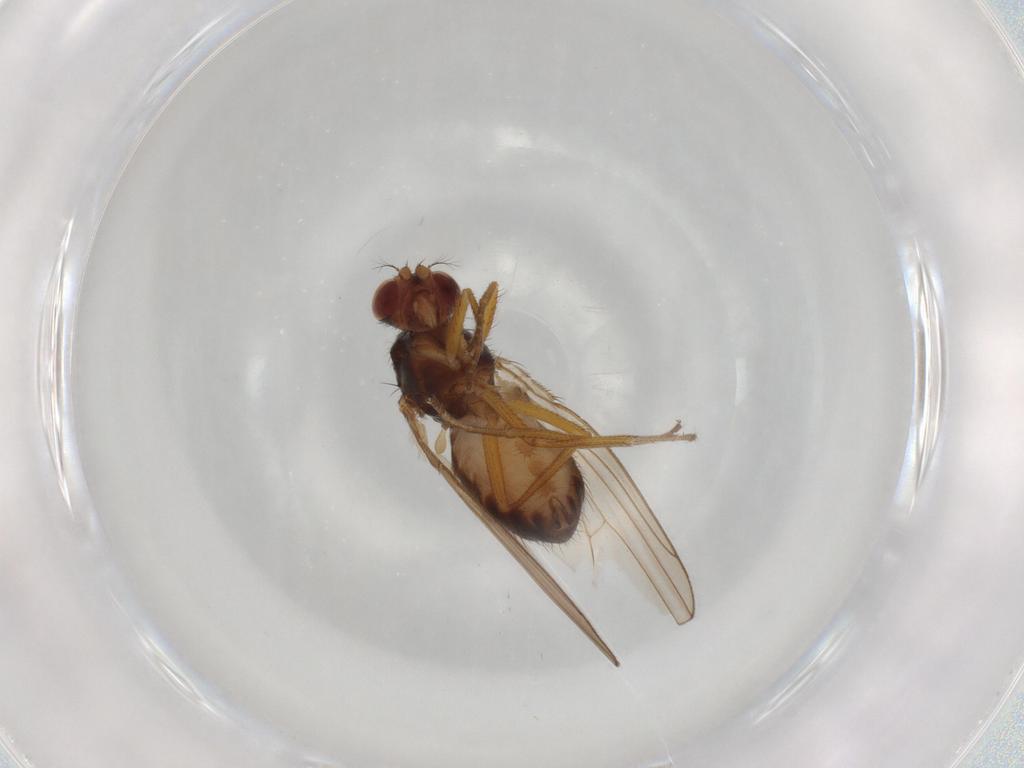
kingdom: Animalia
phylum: Arthropoda
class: Insecta
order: Diptera
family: Drosophilidae
